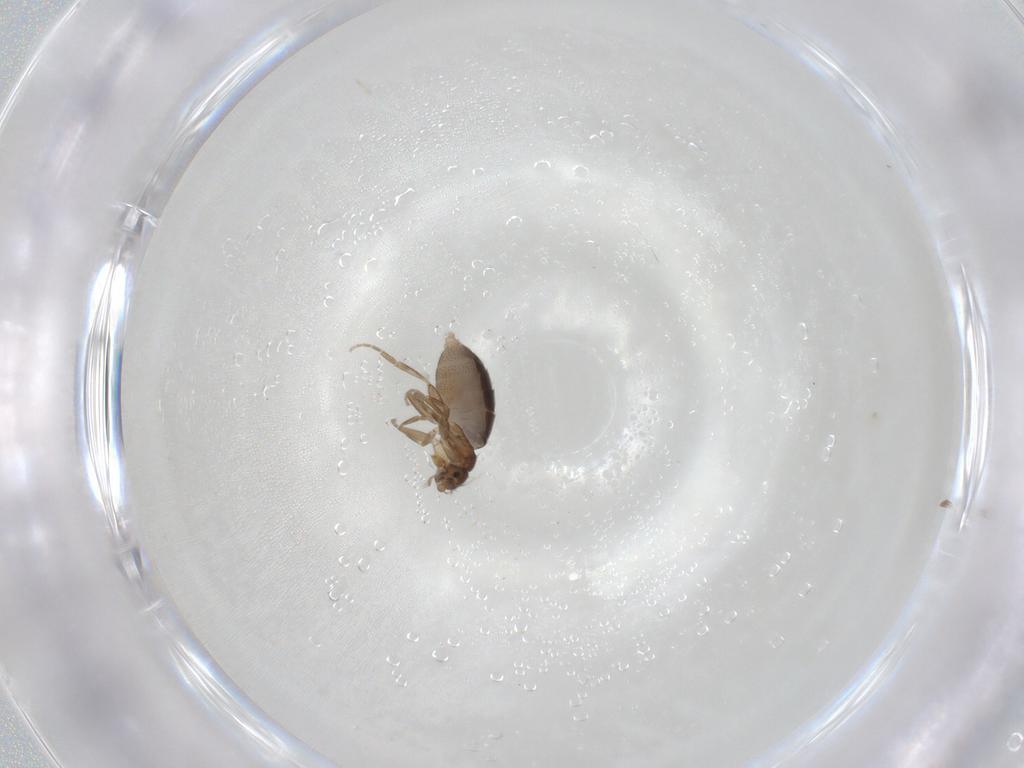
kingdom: Animalia
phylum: Arthropoda
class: Insecta
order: Diptera
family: Phoridae
